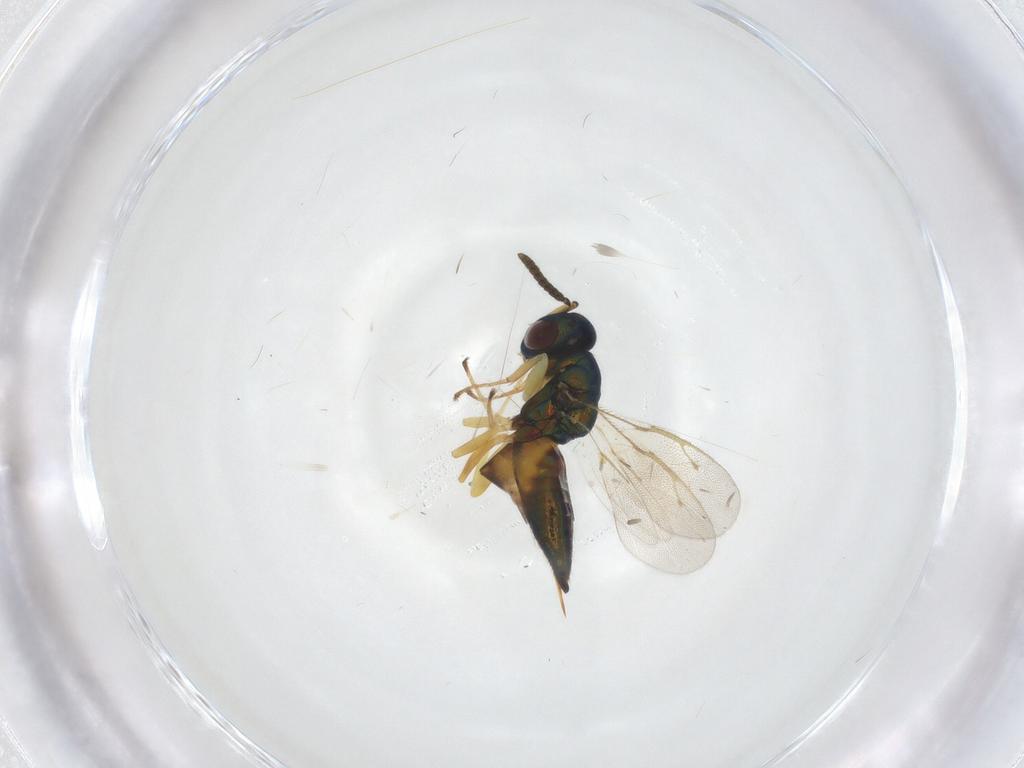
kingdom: Animalia
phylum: Arthropoda
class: Insecta
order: Hymenoptera
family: Pteromalidae
